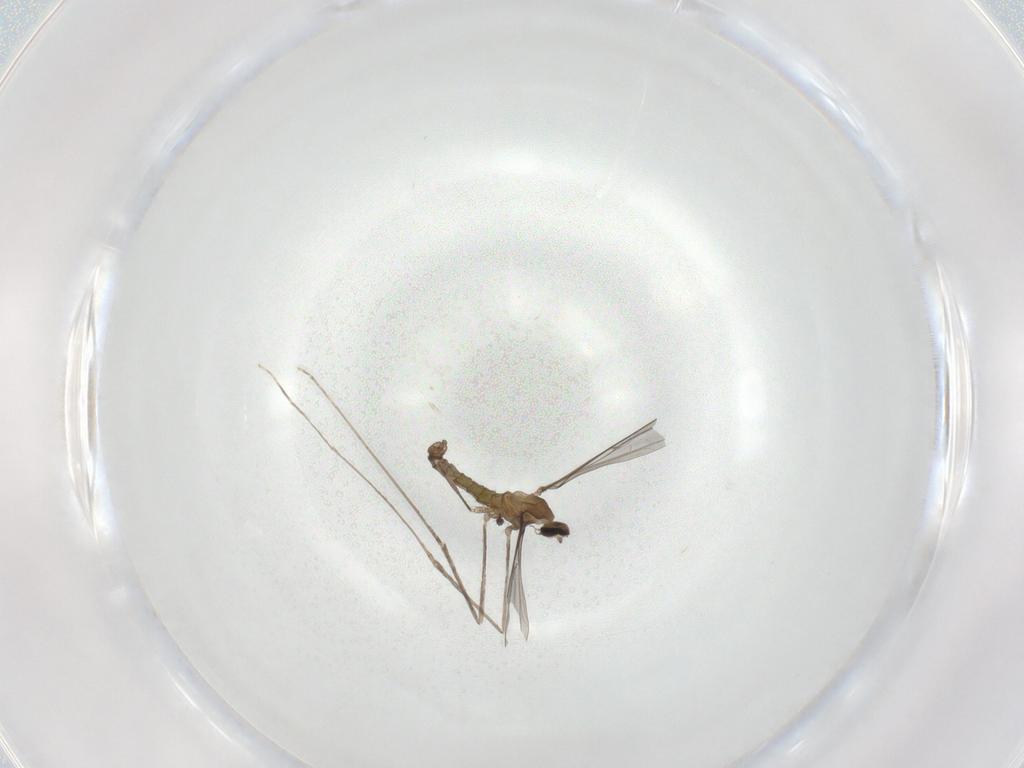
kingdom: Animalia
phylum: Arthropoda
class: Insecta
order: Diptera
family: Cecidomyiidae
